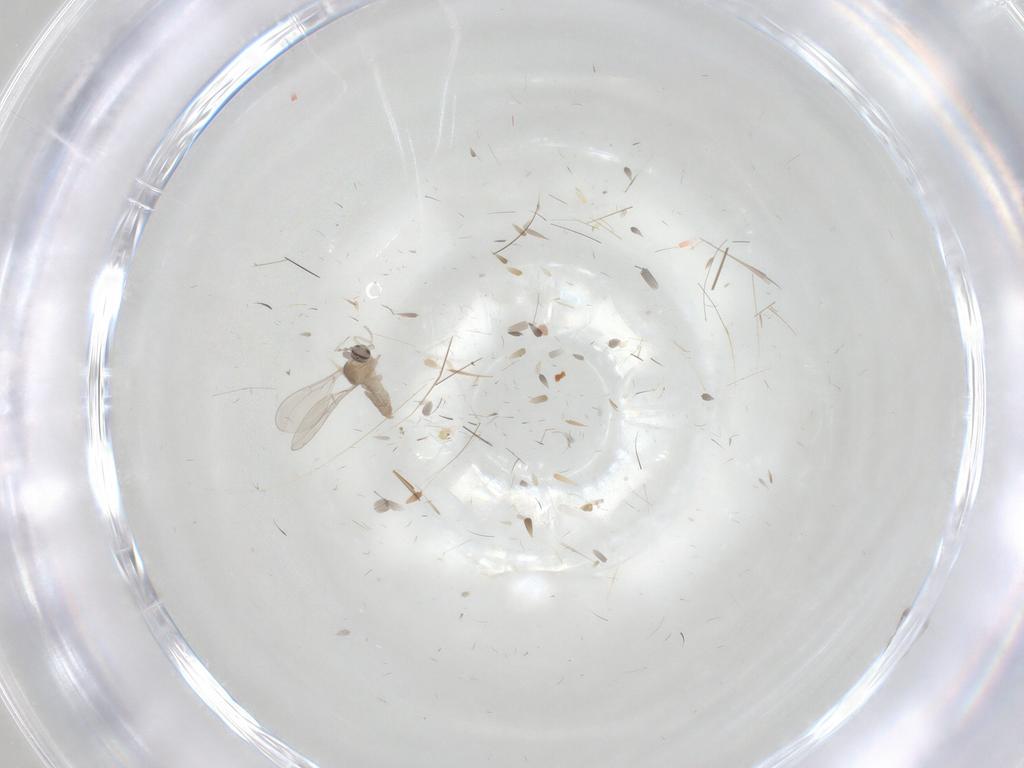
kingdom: Animalia
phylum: Arthropoda
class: Insecta
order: Diptera
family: Cecidomyiidae
